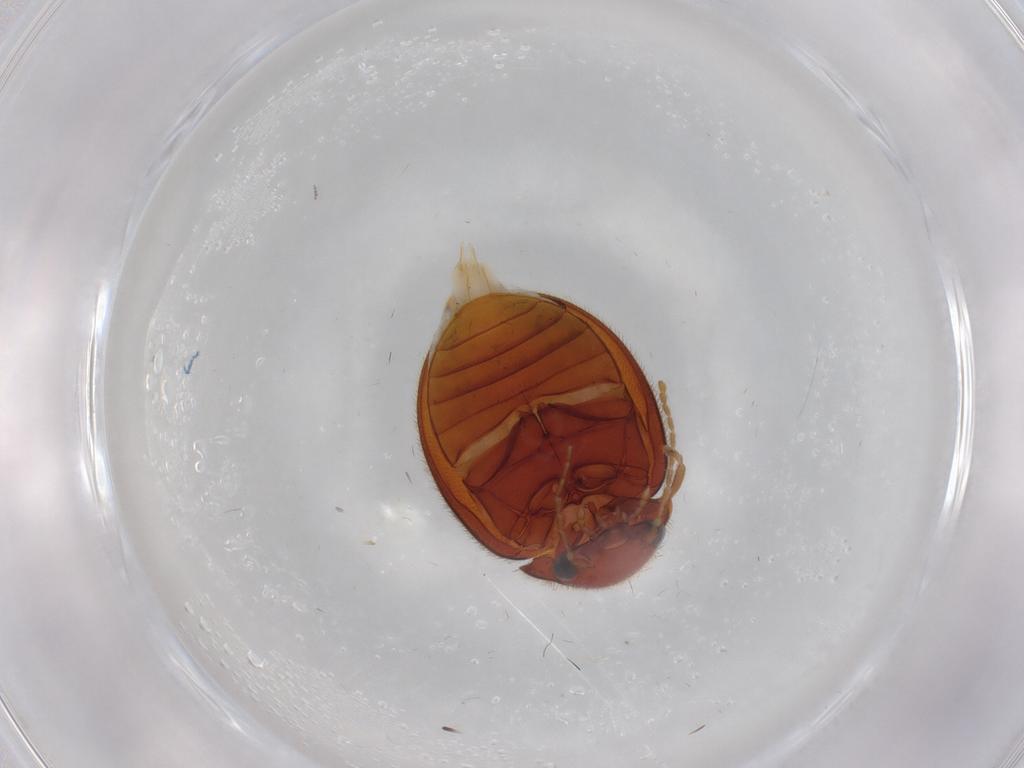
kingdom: Animalia
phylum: Arthropoda
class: Insecta
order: Coleoptera
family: Scirtidae
